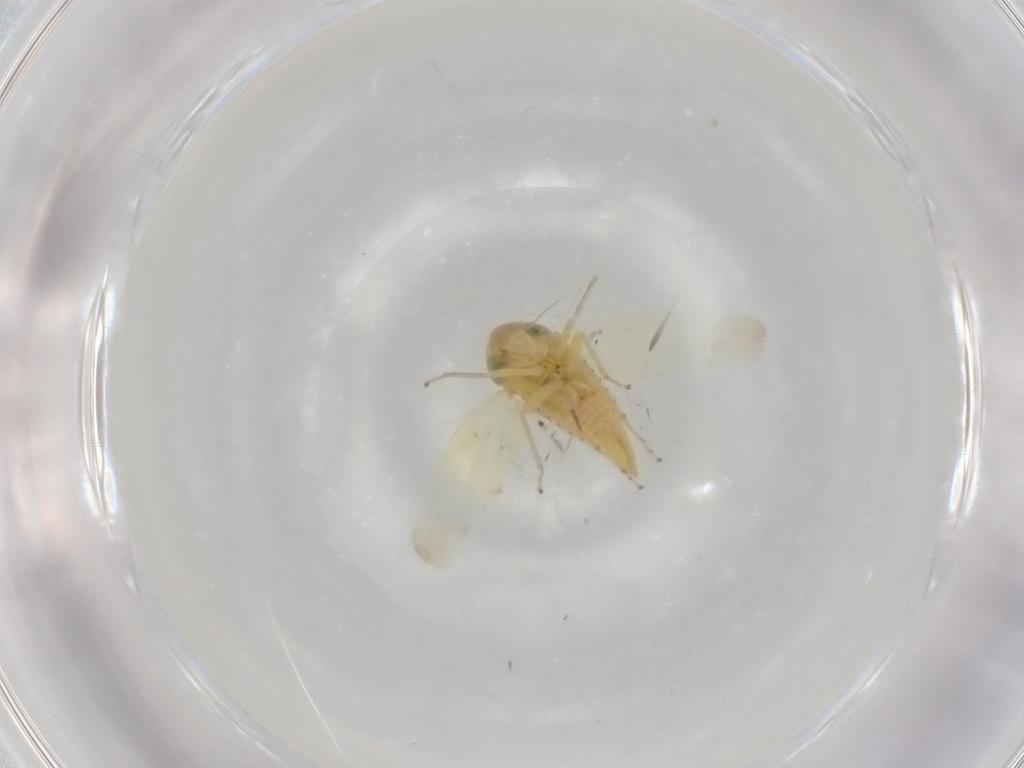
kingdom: Animalia
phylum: Arthropoda
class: Insecta
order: Hemiptera
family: Cicadellidae
